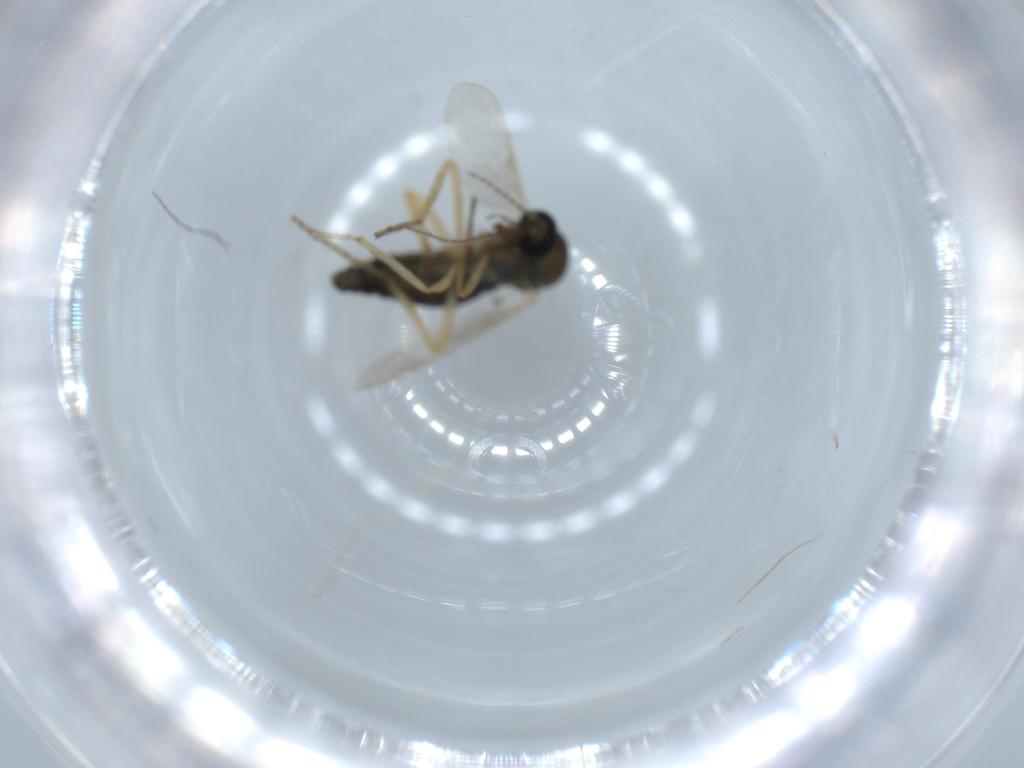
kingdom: Animalia
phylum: Arthropoda
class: Insecta
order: Diptera
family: Ceratopogonidae
